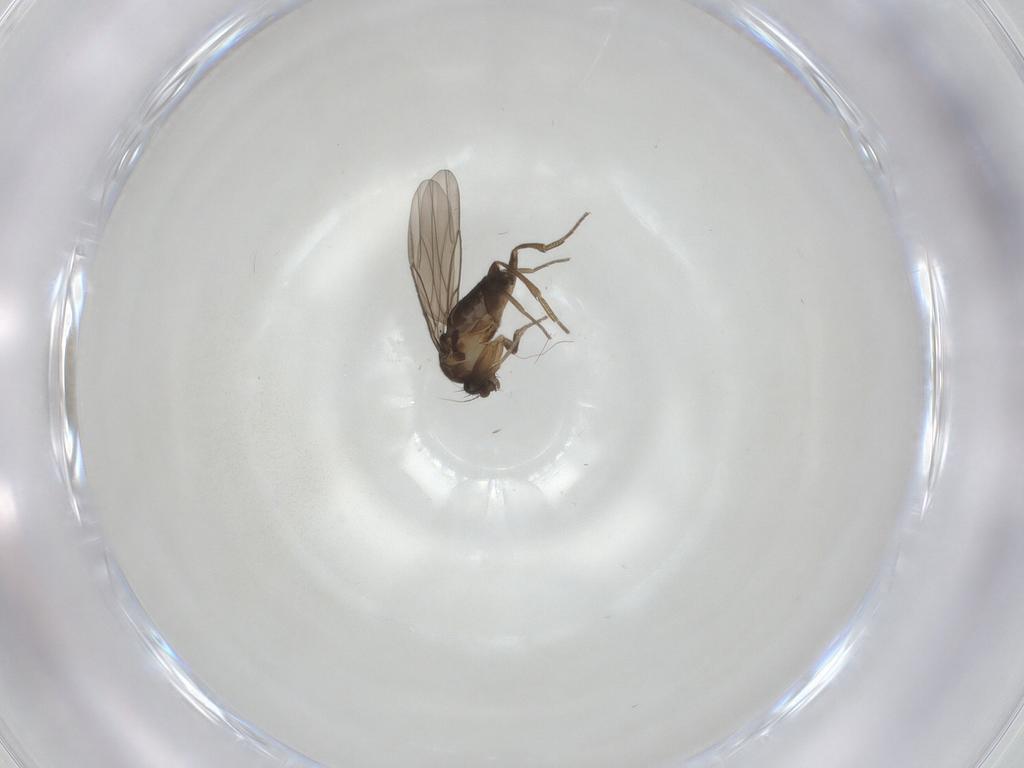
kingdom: Animalia
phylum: Arthropoda
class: Insecta
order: Diptera
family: Phoridae
